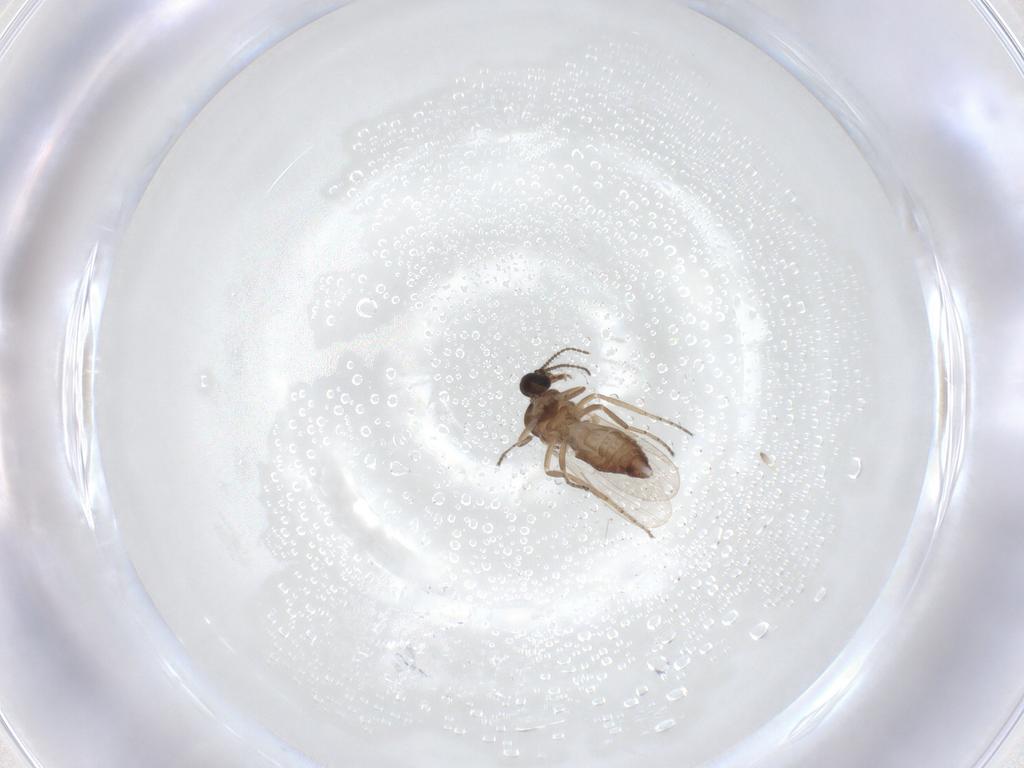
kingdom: Animalia
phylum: Arthropoda
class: Insecta
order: Diptera
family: Ceratopogonidae
